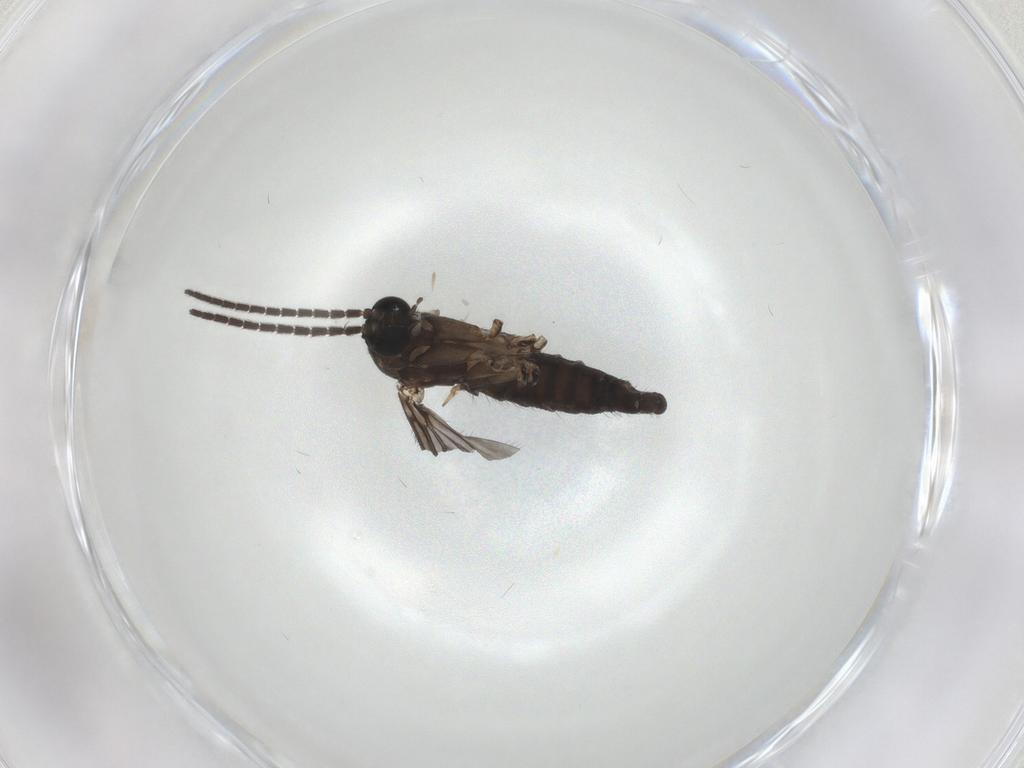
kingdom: Animalia
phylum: Arthropoda
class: Insecta
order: Diptera
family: Sciaridae
